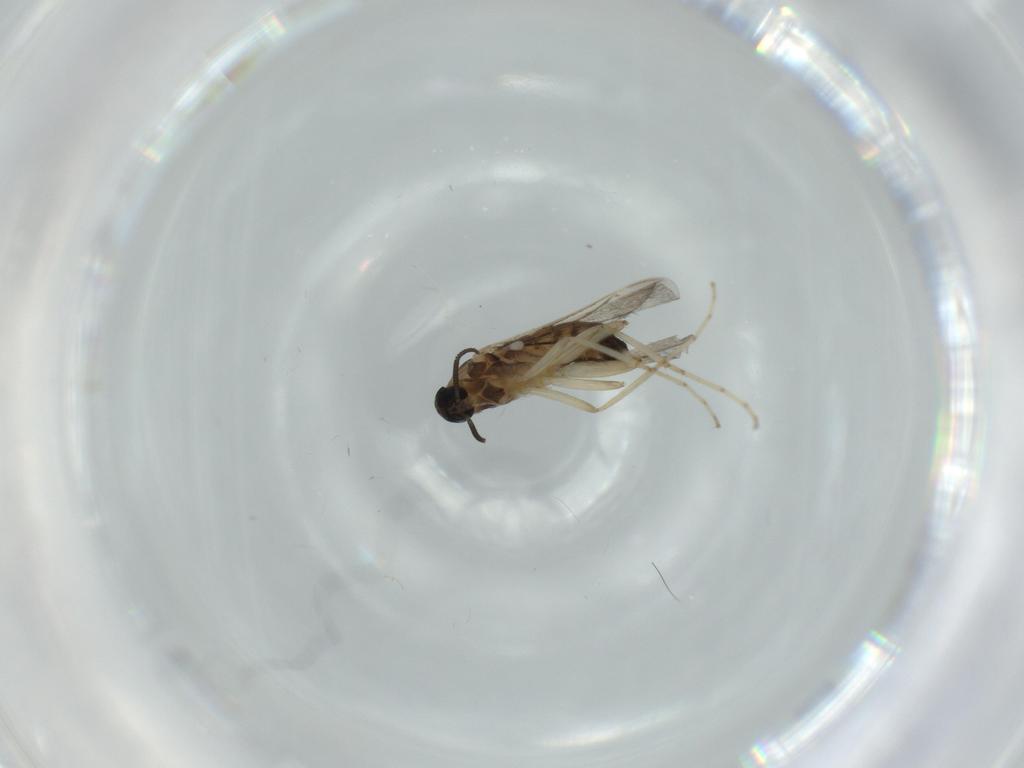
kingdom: Animalia
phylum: Arthropoda
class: Insecta
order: Diptera
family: Cecidomyiidae
